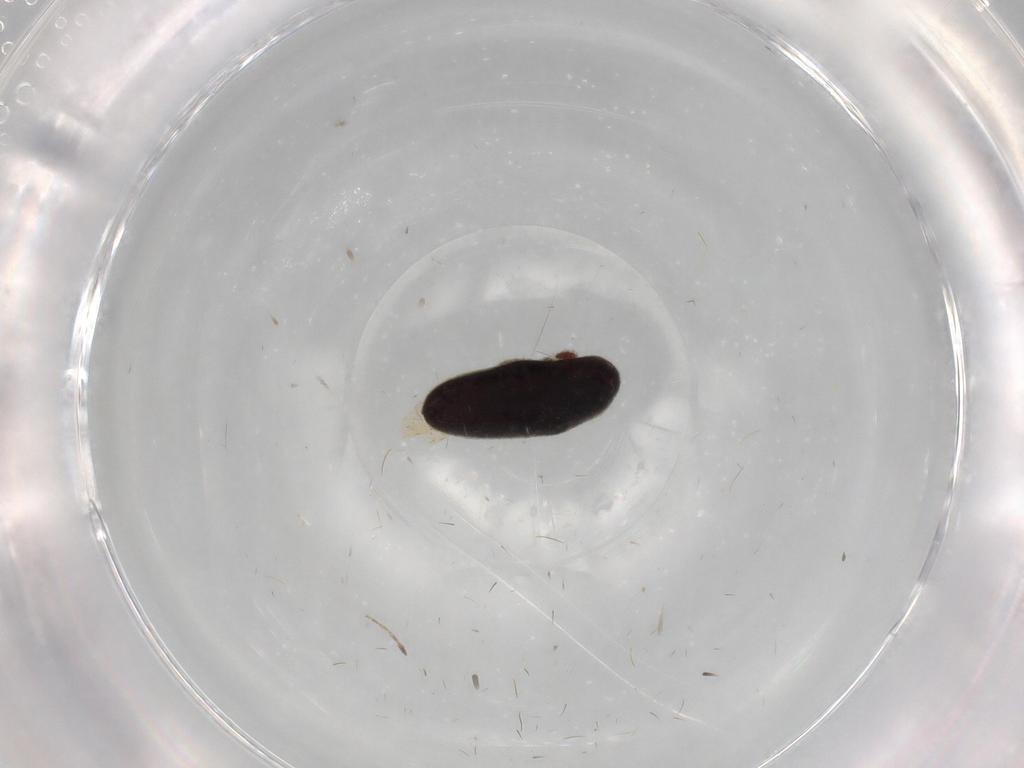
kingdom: Animalia
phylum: Arthropoda
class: Insecta
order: Coleoptera
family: Throscidae
